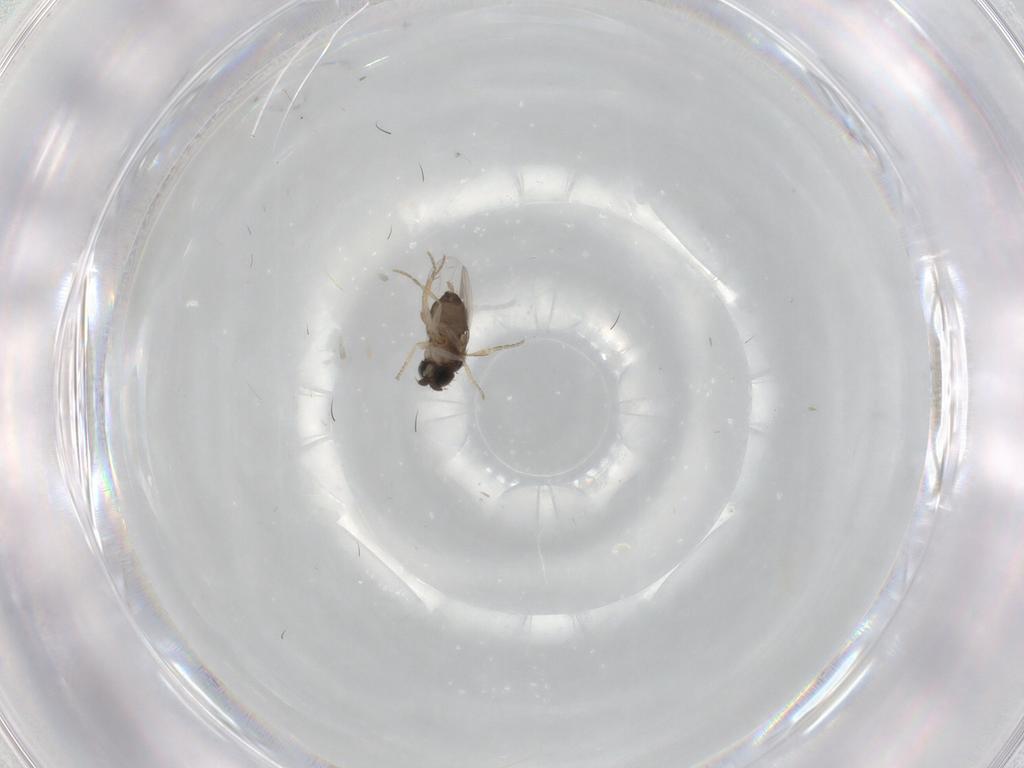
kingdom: Animalia
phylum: Arthropoda
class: Insecta
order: Diptera
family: Phoridae
